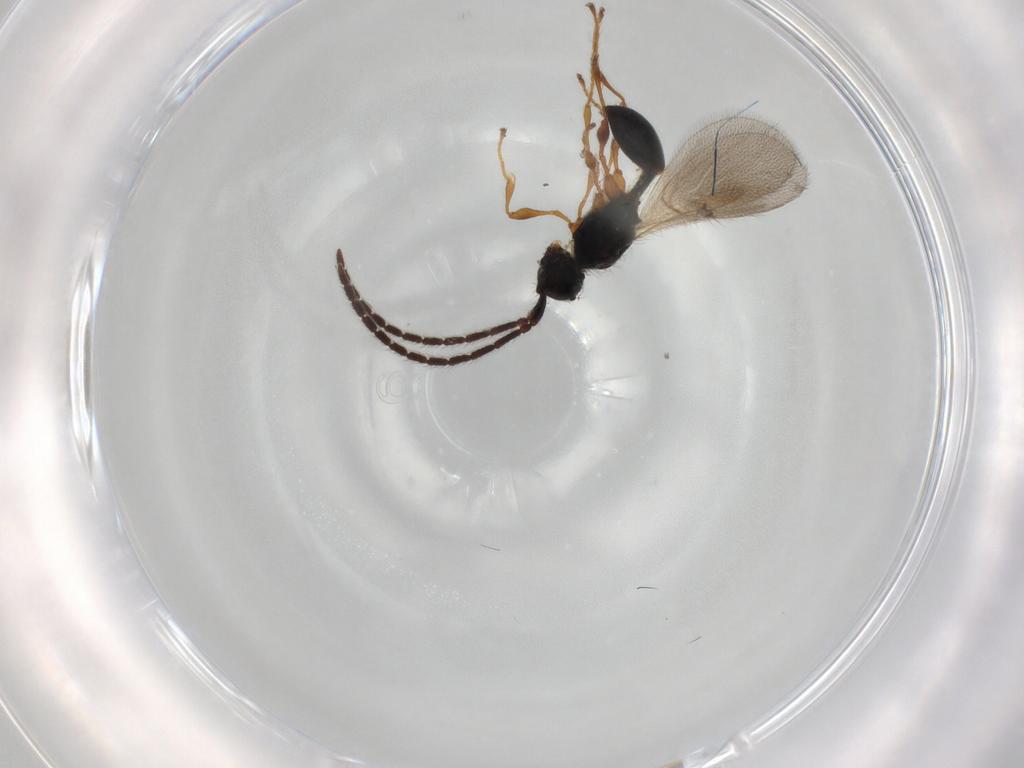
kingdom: Animalia
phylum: Arthropoda
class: Insecta
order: Hymenoptera
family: Diapriidae
